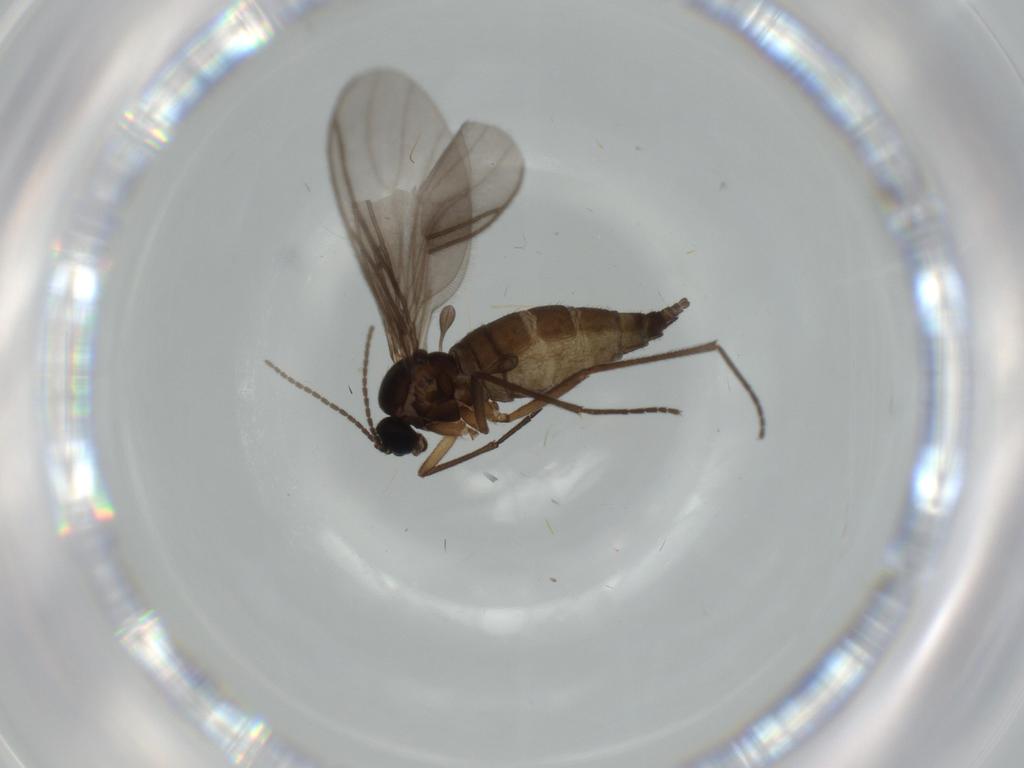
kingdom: Animalia
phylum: Arthropoda
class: Insecta
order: Diptera
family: Sciaridae
